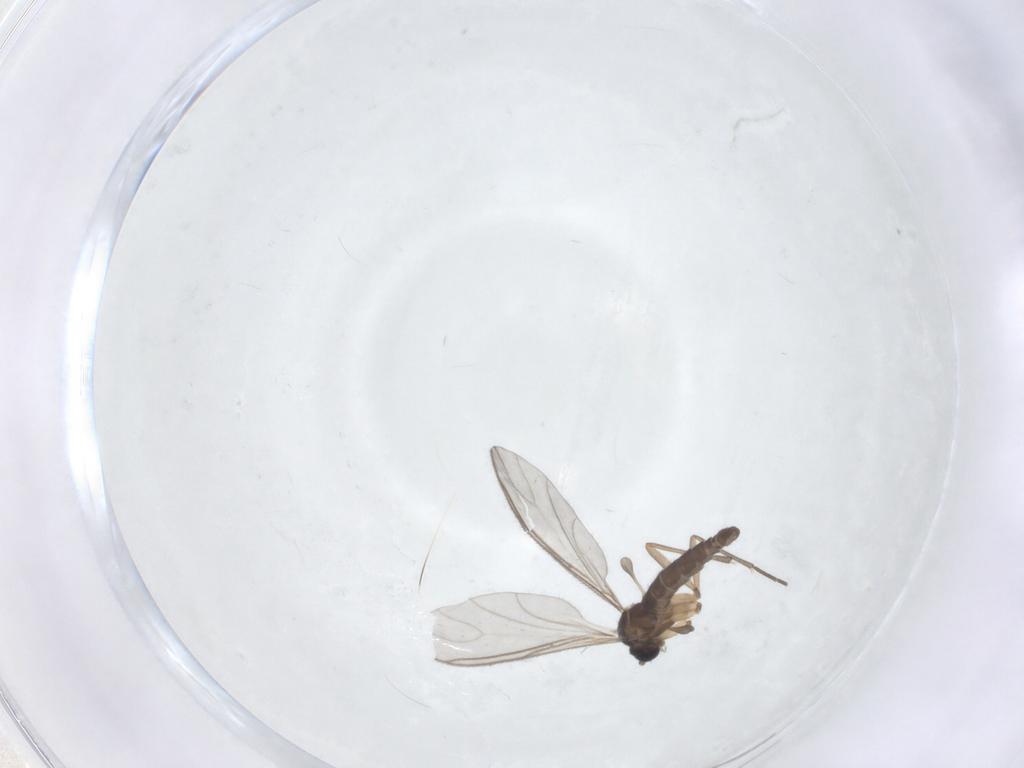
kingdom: Animalia
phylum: Arthropoda
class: Insecta
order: Diptera
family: Sciaridae
